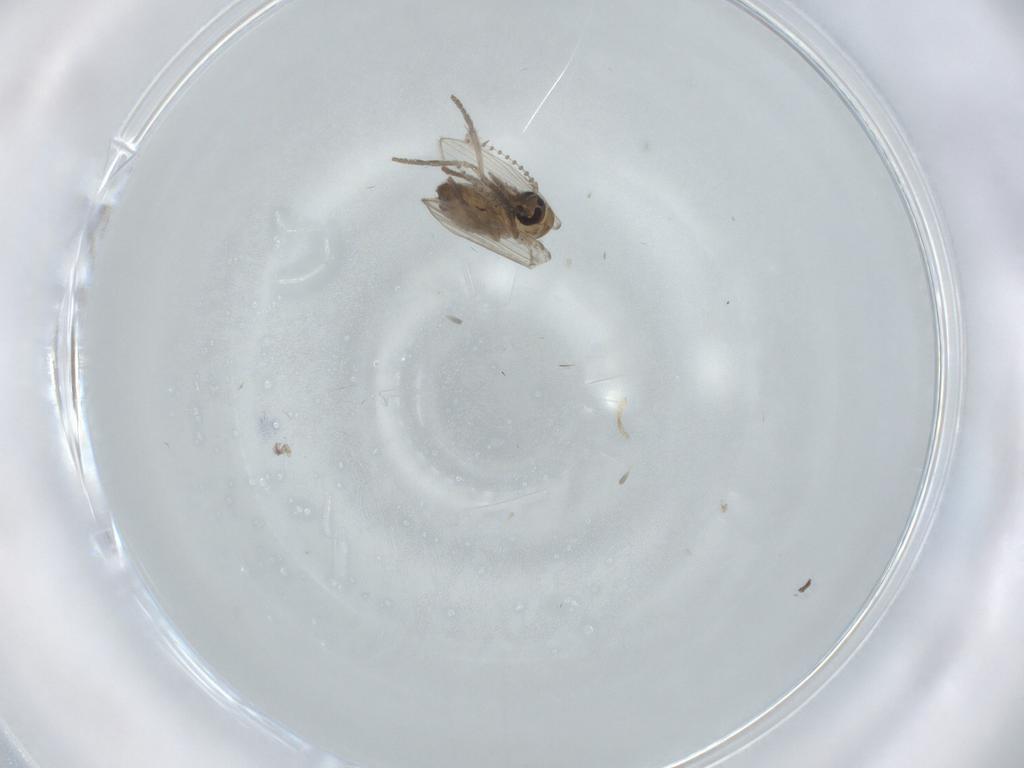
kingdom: Animalia
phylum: Arthropoda
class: Insecta
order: Diptera
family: Psychodidae
